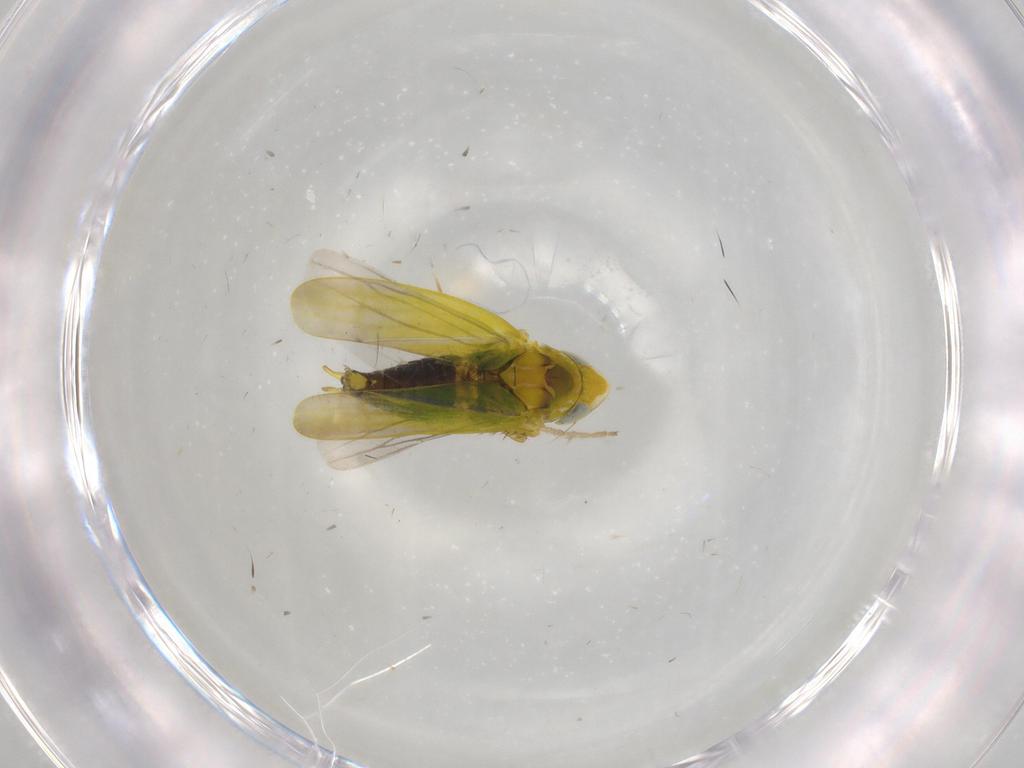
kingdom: Animalia
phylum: Arthropoda
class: Insecta
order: Hemiptera
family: Cicadellidae
